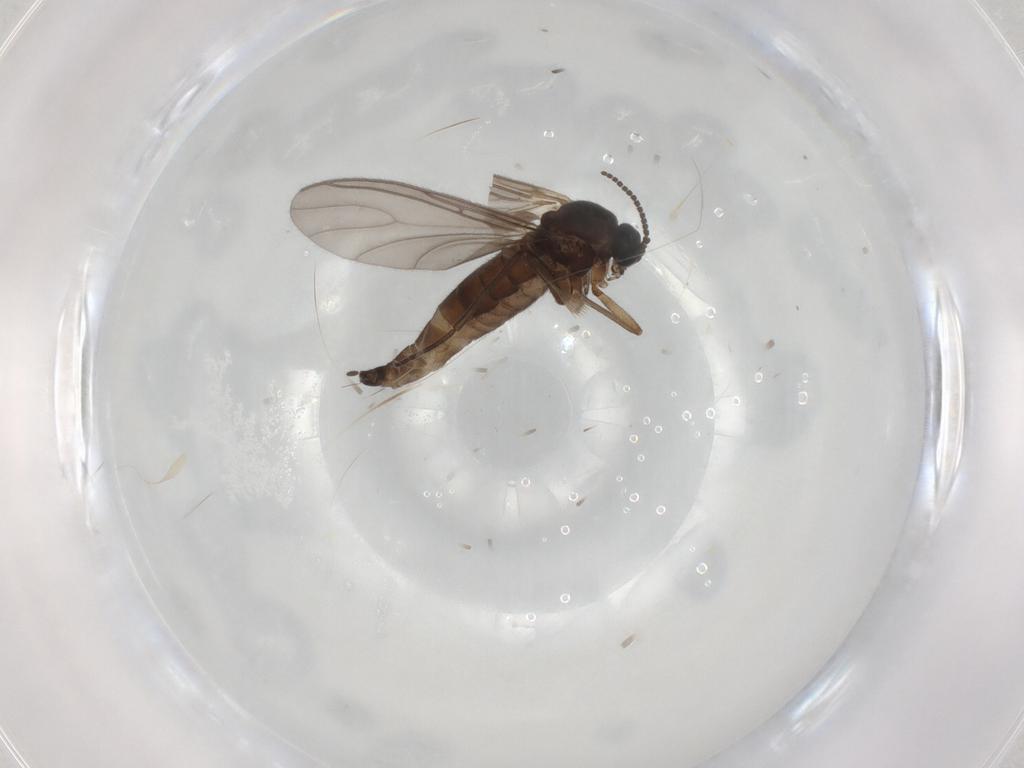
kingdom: Animalia
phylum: Arthropoda
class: Insecta
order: Diptera
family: Sciaridae
